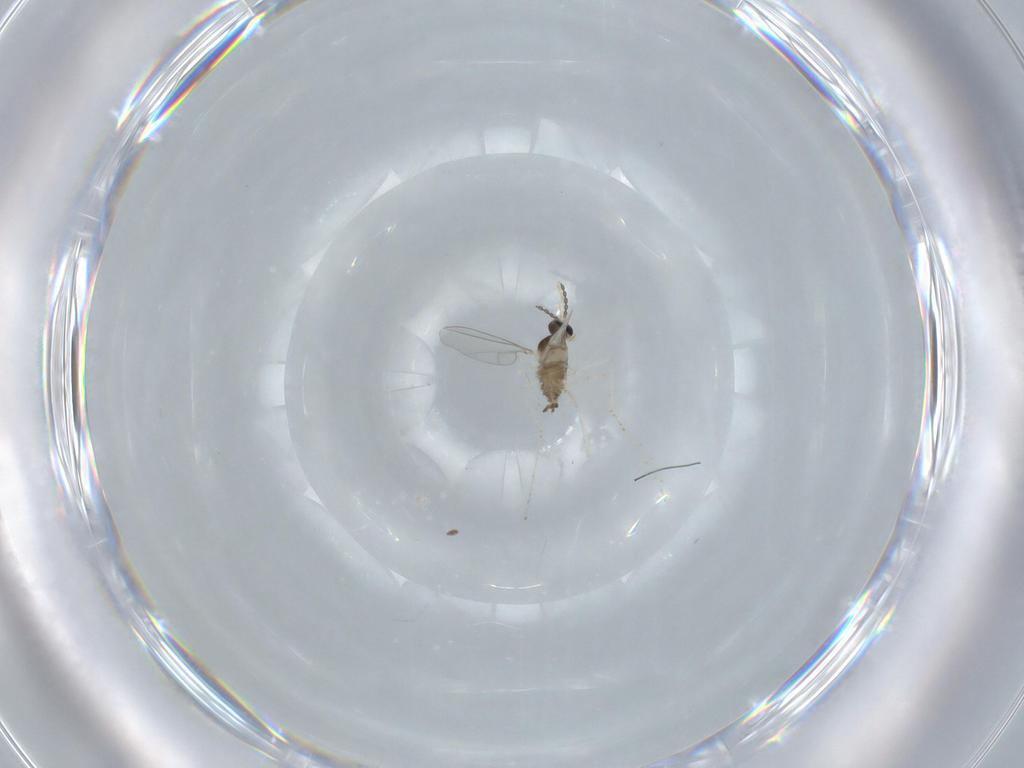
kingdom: Animalia
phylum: Arthropoda
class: Insecta
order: Diptera
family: Cecidomyiidae
